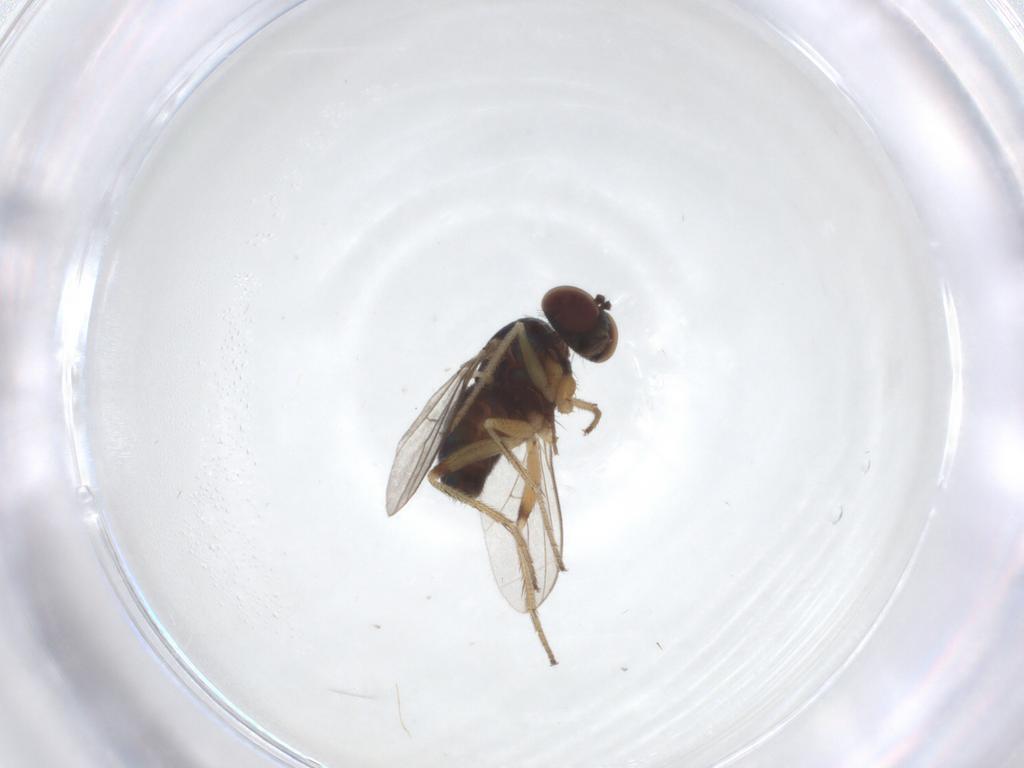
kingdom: Animalia
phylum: Arthropoda
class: Insecta
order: Diptera
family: Psychodidae
